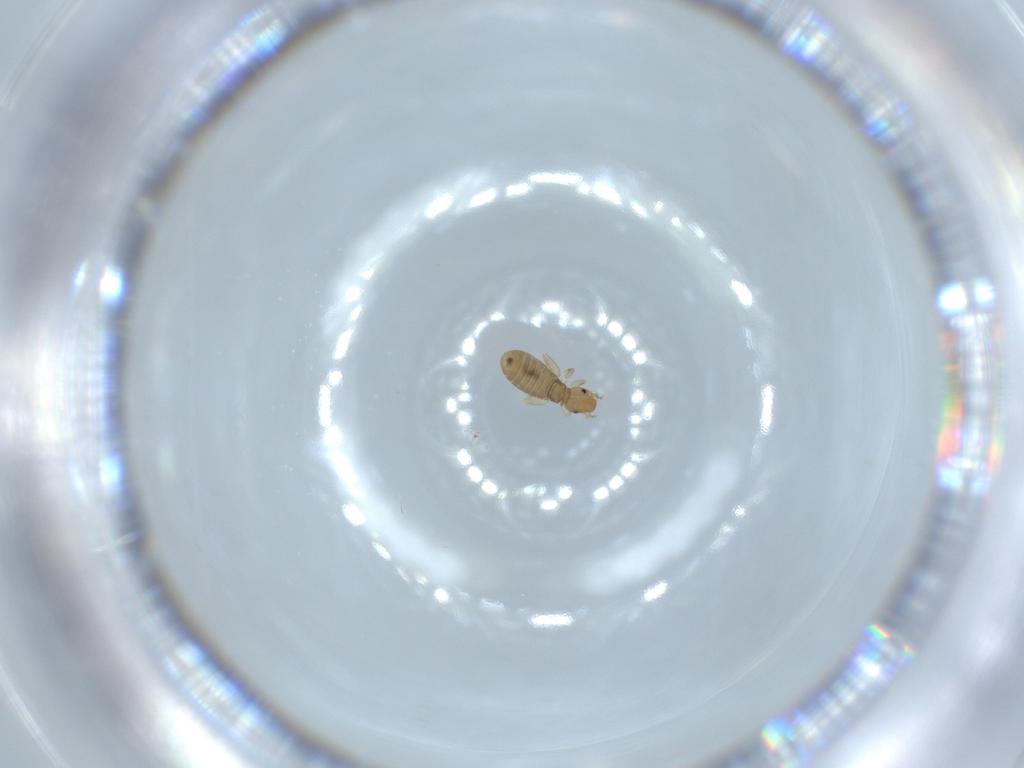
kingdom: Animalia
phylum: Arthropoda
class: Insecta
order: Psocodea
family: Liposcelididae
